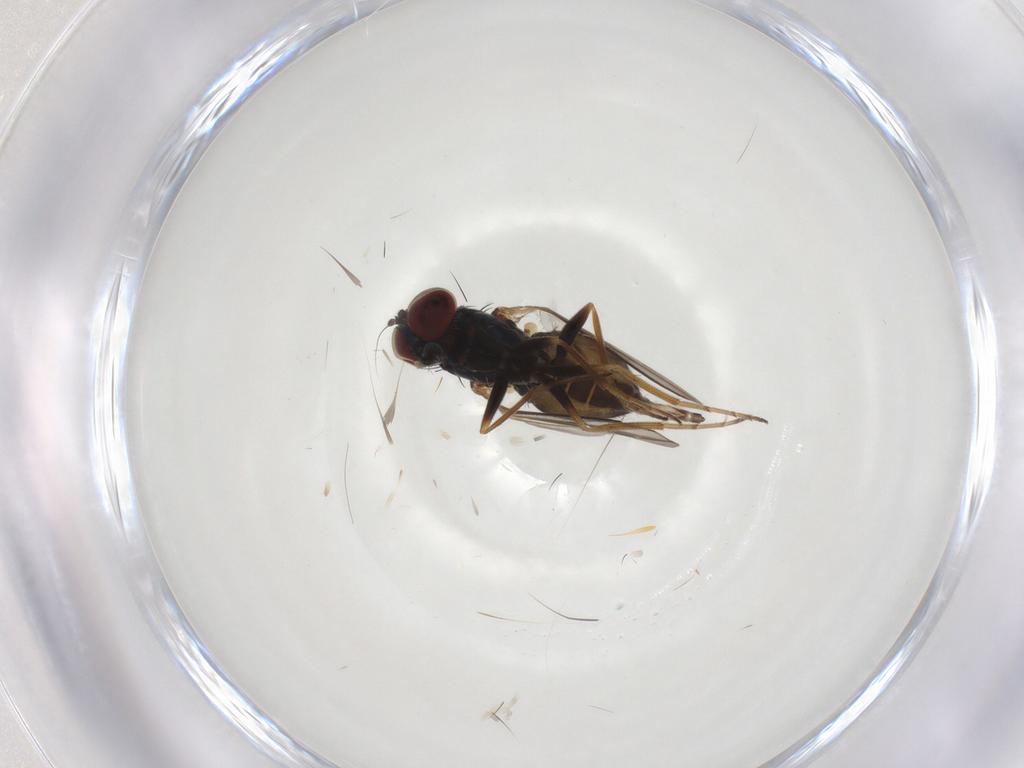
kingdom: Animalia
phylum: Arthropoda
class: Insecta
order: Diptera
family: Dolichopodidae
